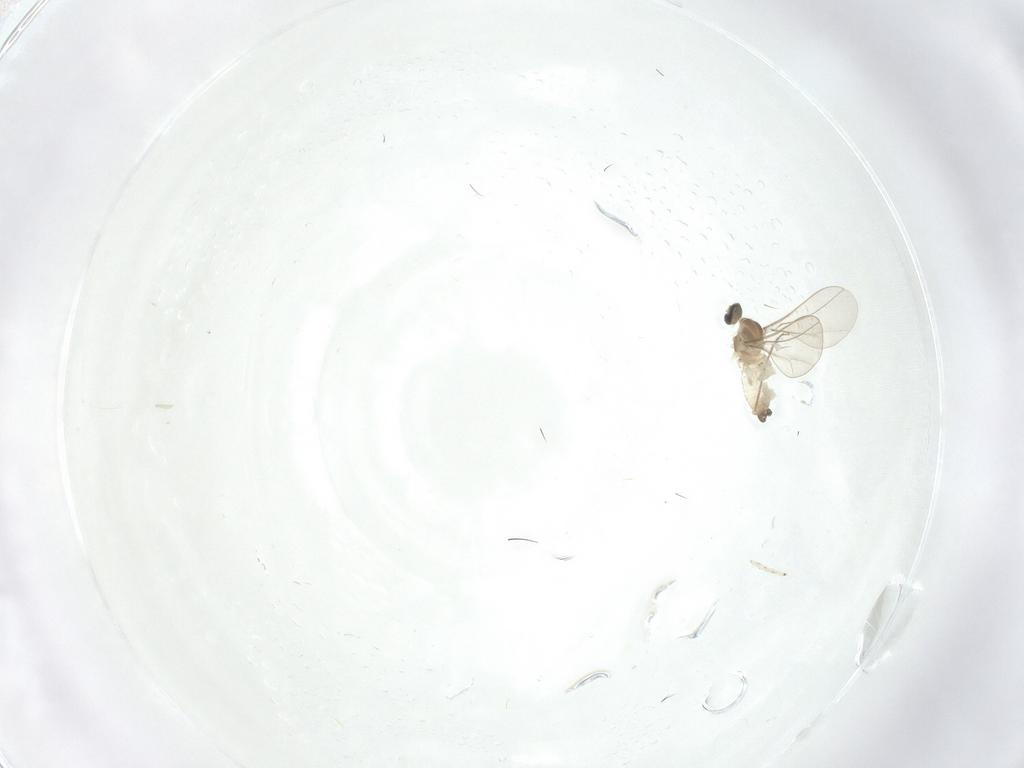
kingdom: Animalia
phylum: Arthropoda
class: Insecta
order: Diptera
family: Cecidomyiidae
